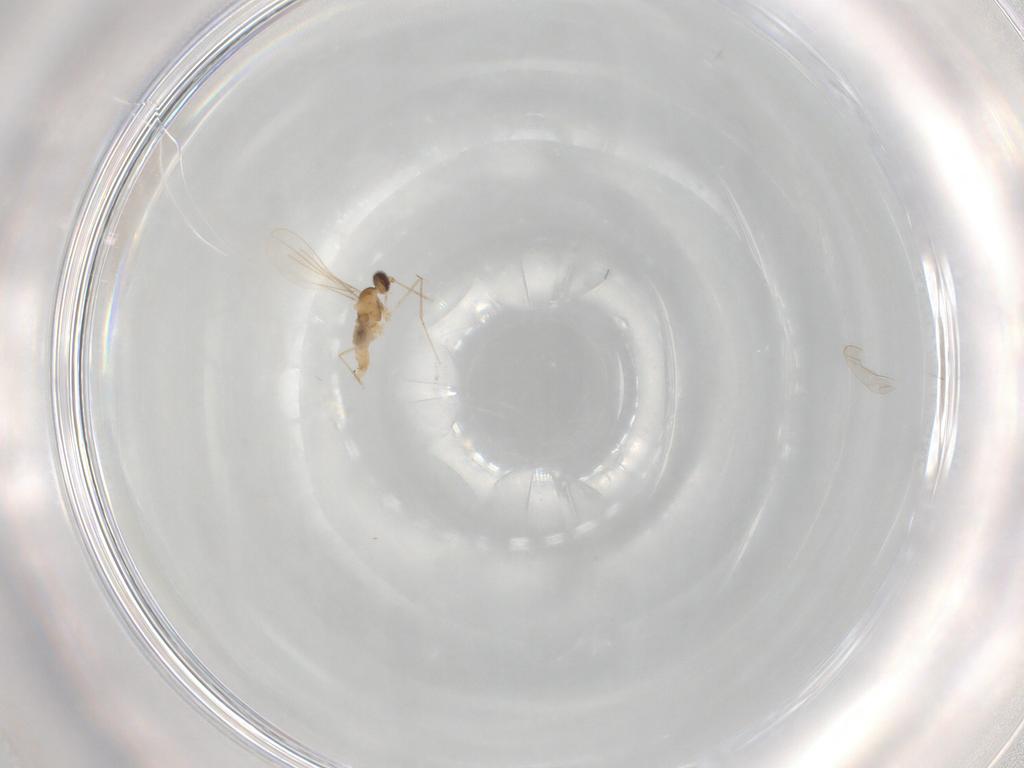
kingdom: Animalia
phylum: Arthropoda
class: Insecta
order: Diptera
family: Cecidomyiidae
